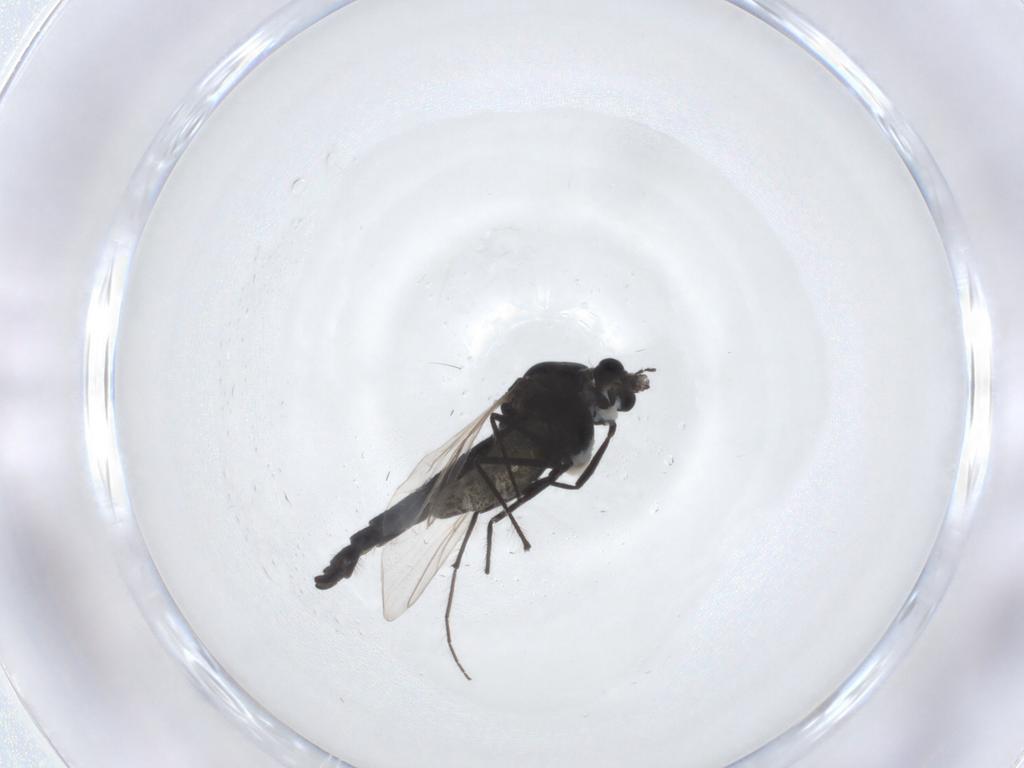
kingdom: Animalia
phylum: Arthropoda
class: Insecta
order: Diptera
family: Chironomidae
